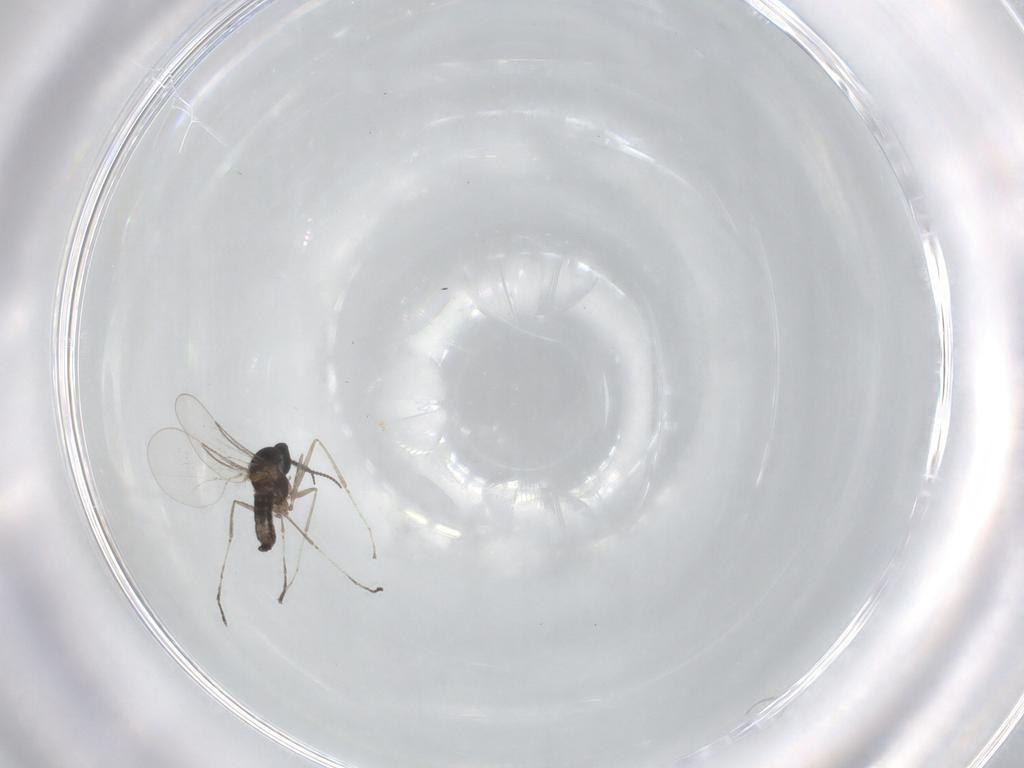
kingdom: Animalia
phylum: Arthropoda
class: Insecta
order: Diptera
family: Cecidomyiidae
